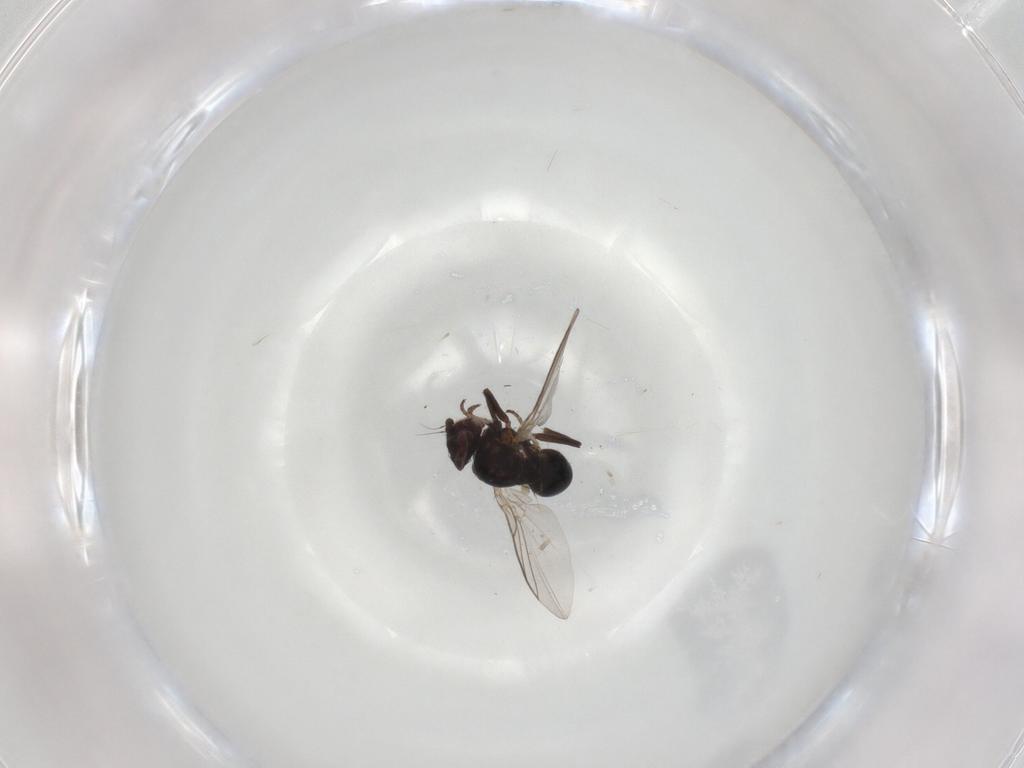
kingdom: Animalia
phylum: Arthropoda
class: Insecta
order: Diptera
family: Agromyzidae
